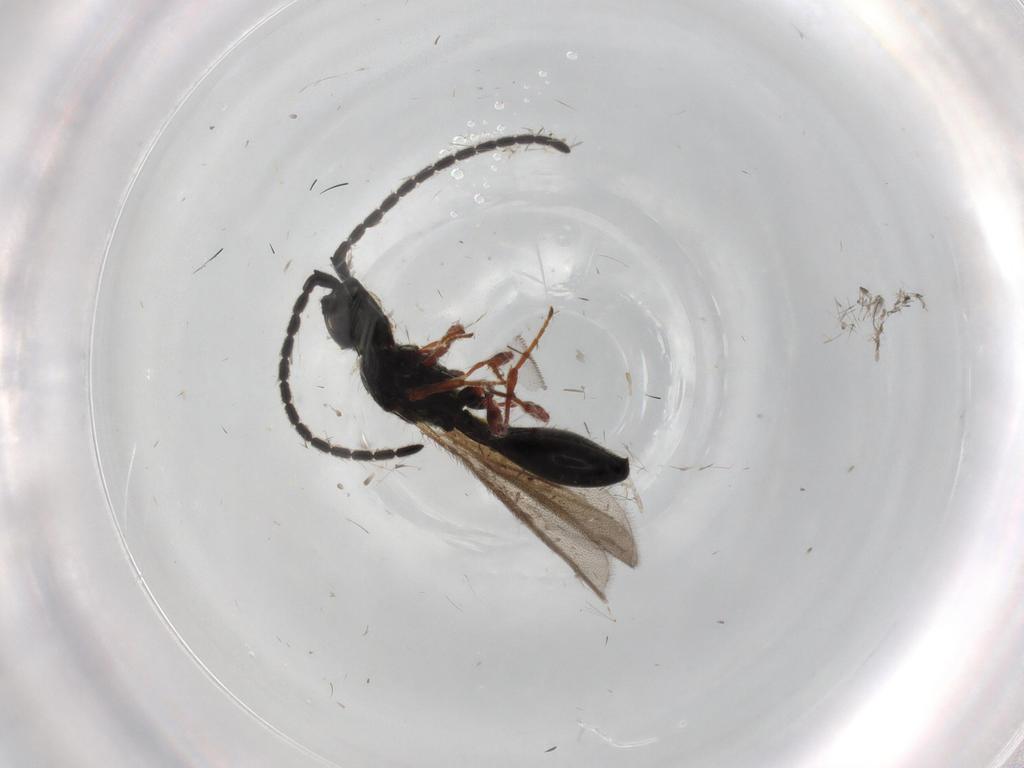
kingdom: Animalia
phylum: Arthropoda
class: Insecta
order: Hymenoptera
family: Diapriidae
